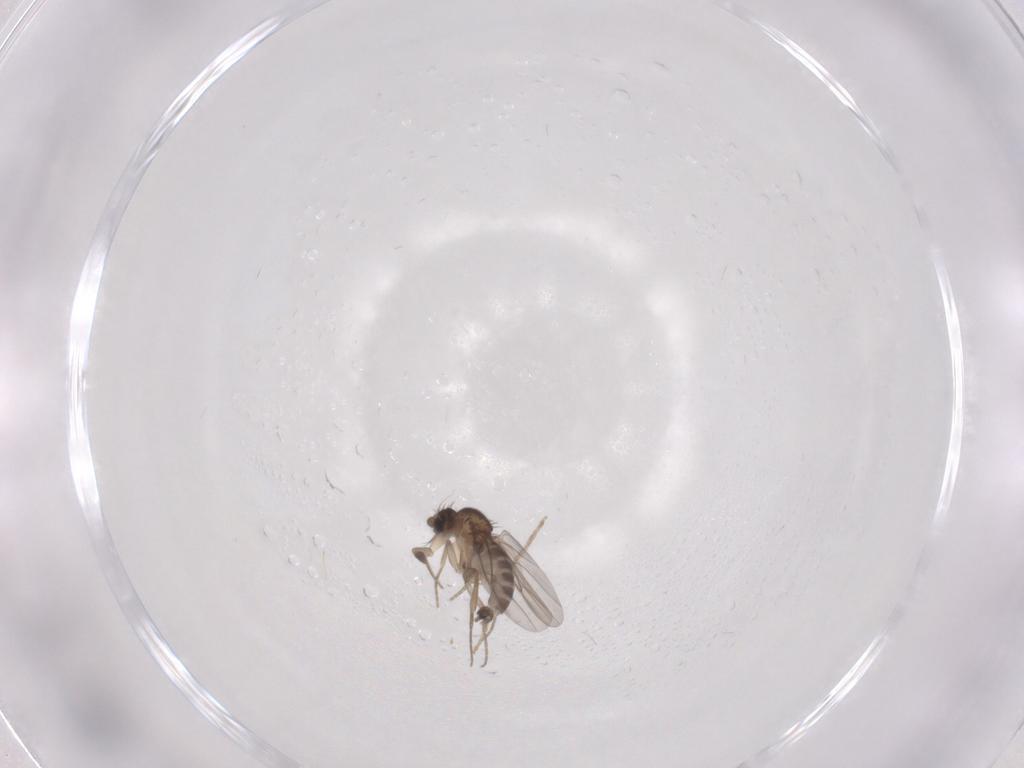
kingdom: Animalia
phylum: Arthropoda
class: Insecta
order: Diptera
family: Phoridae
